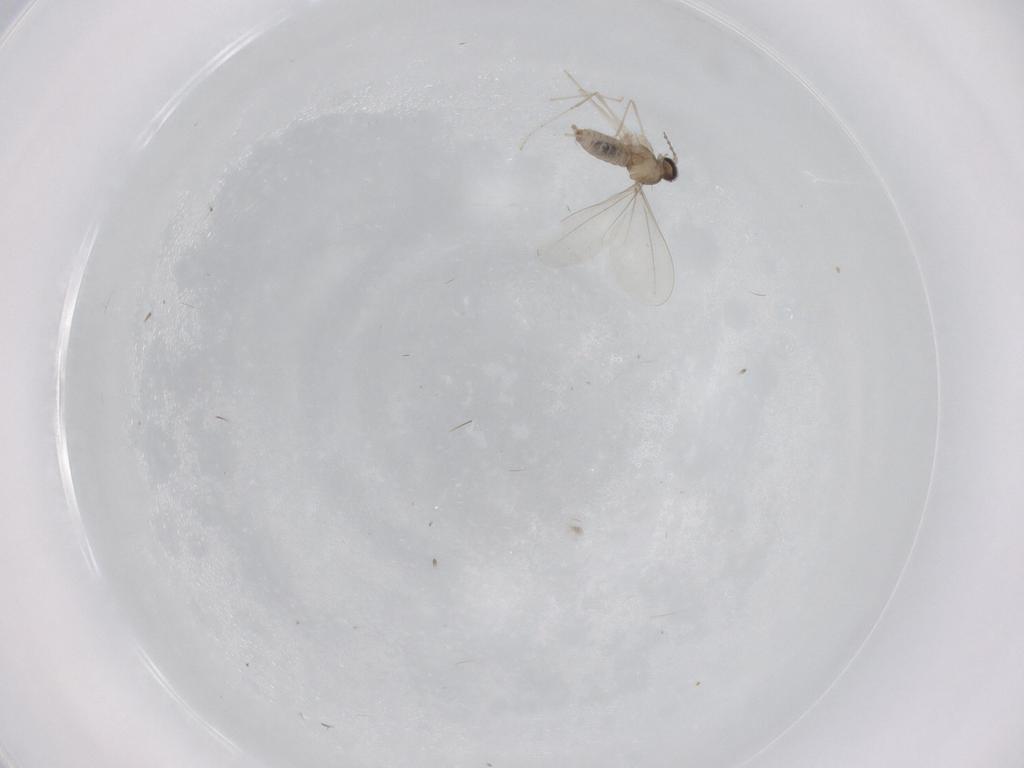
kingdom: Animalia
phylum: Arthropoda
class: Insecta
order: Diptera
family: Cecidomyiidae
